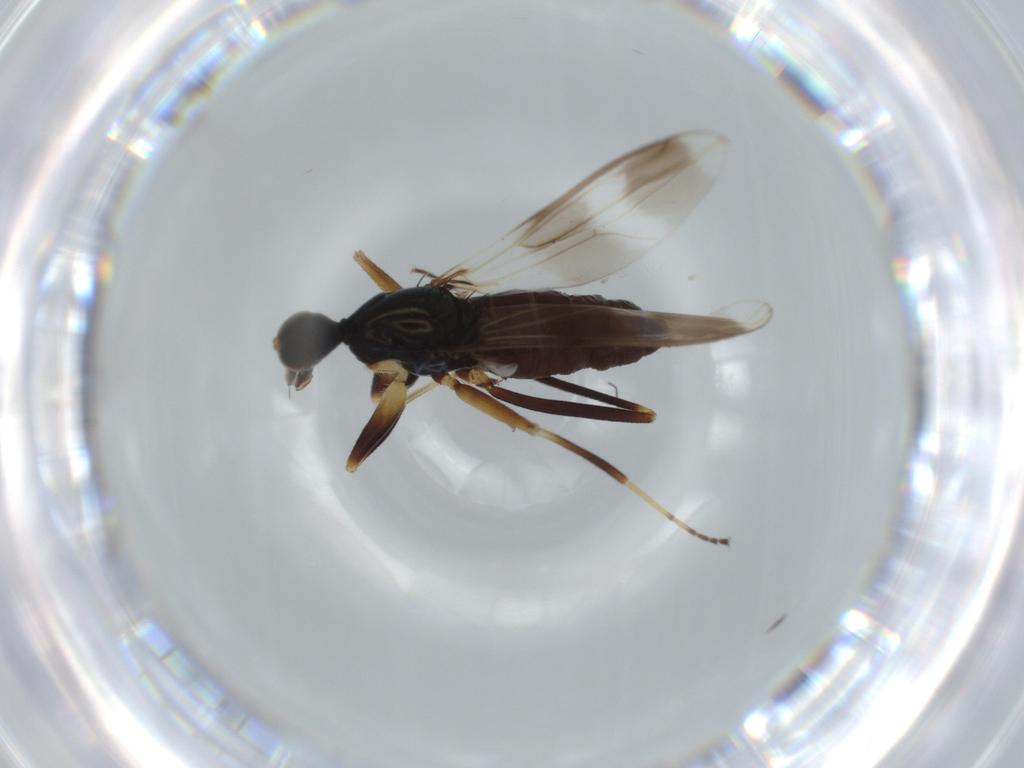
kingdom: Animalia
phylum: Arthropoda
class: Insecta
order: Diptera
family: Hybotidae
